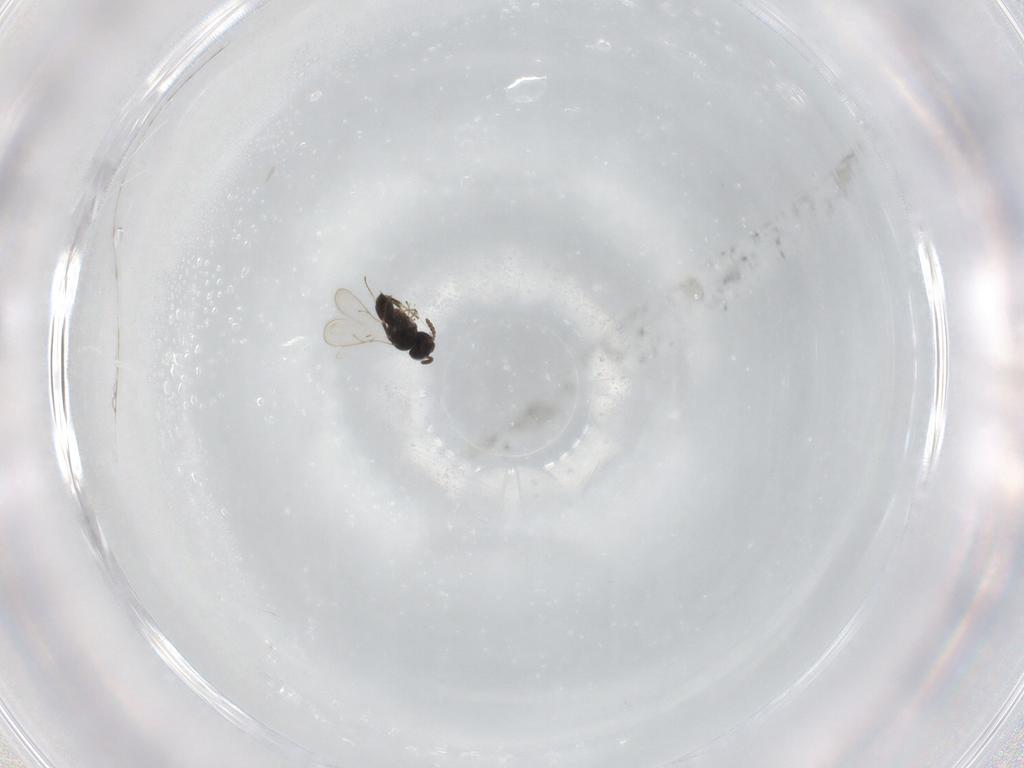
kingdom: Animalia
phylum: Arthropoda
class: Insecta
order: Hymenoptera
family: Scelionidae
